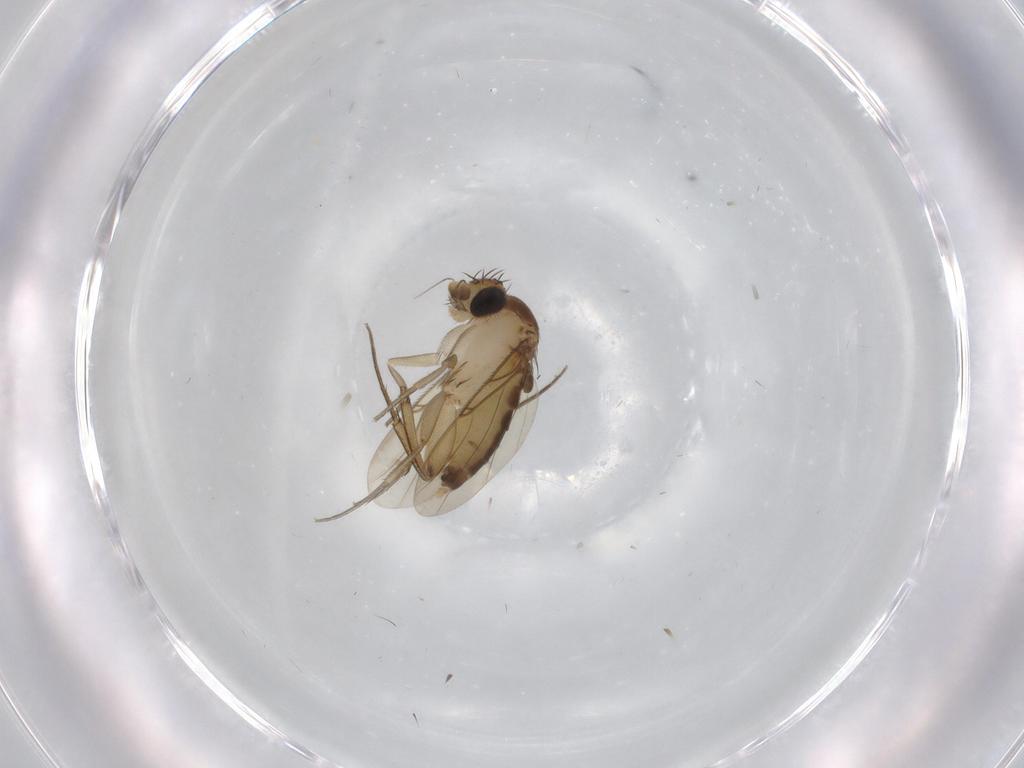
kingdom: Animalia
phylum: Arthropoda
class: Insecta
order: Diptera
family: Phoridae
